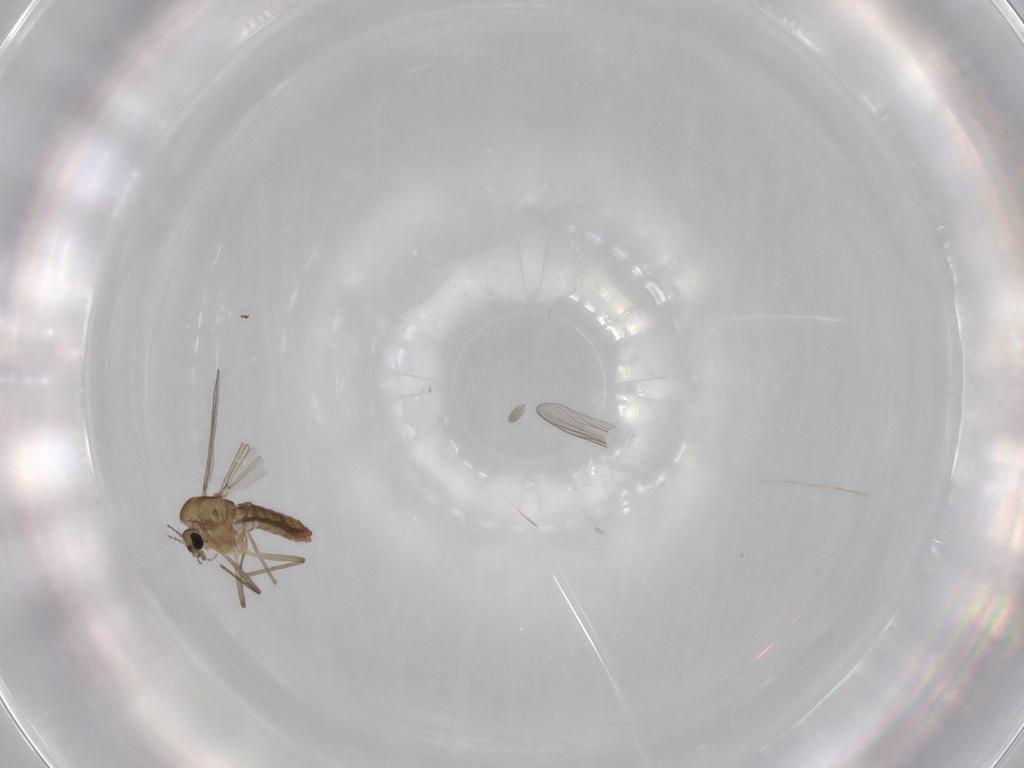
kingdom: Animalia
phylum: Arthropoda
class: Insecta
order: Diptera
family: Chironomidae
